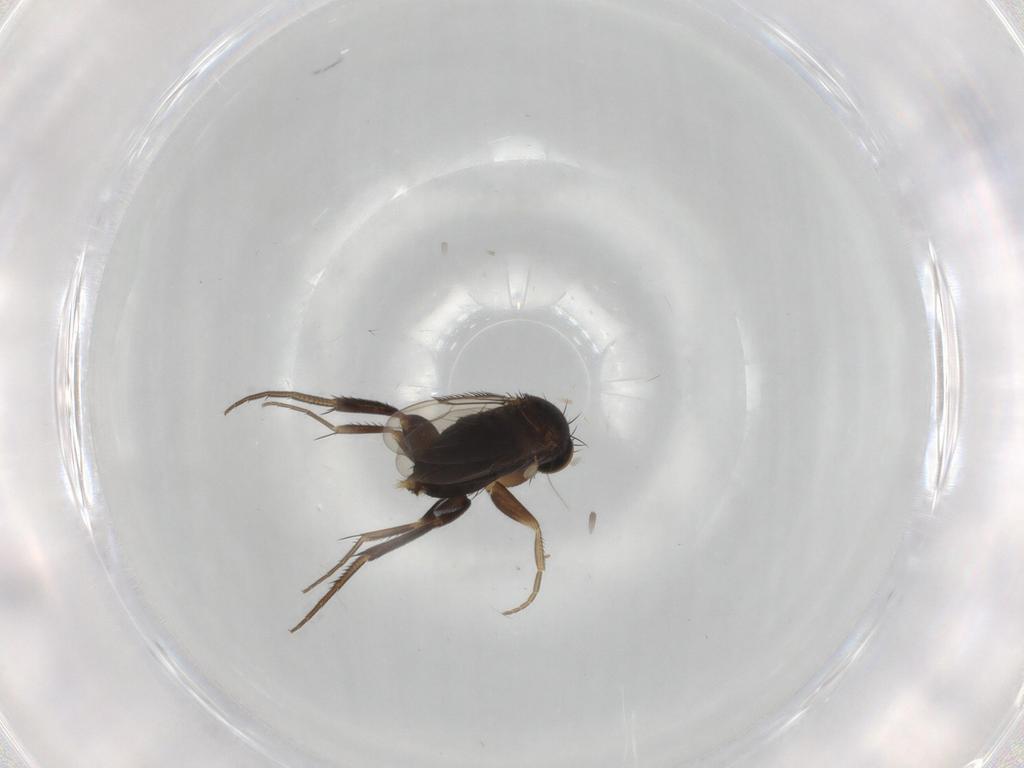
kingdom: Animalia
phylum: Arthropoda
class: Insecta
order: Diptera
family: Phoridae
